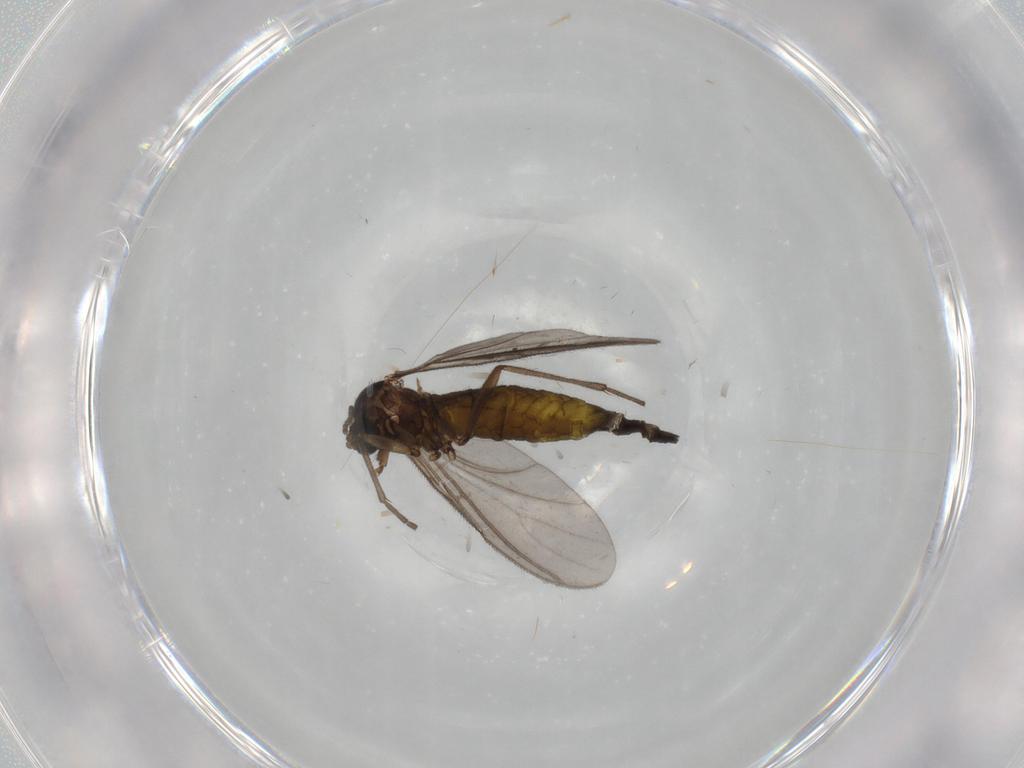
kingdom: Animalia
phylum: Arthropoda
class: Insecta
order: Diptera
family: Sciaridae
